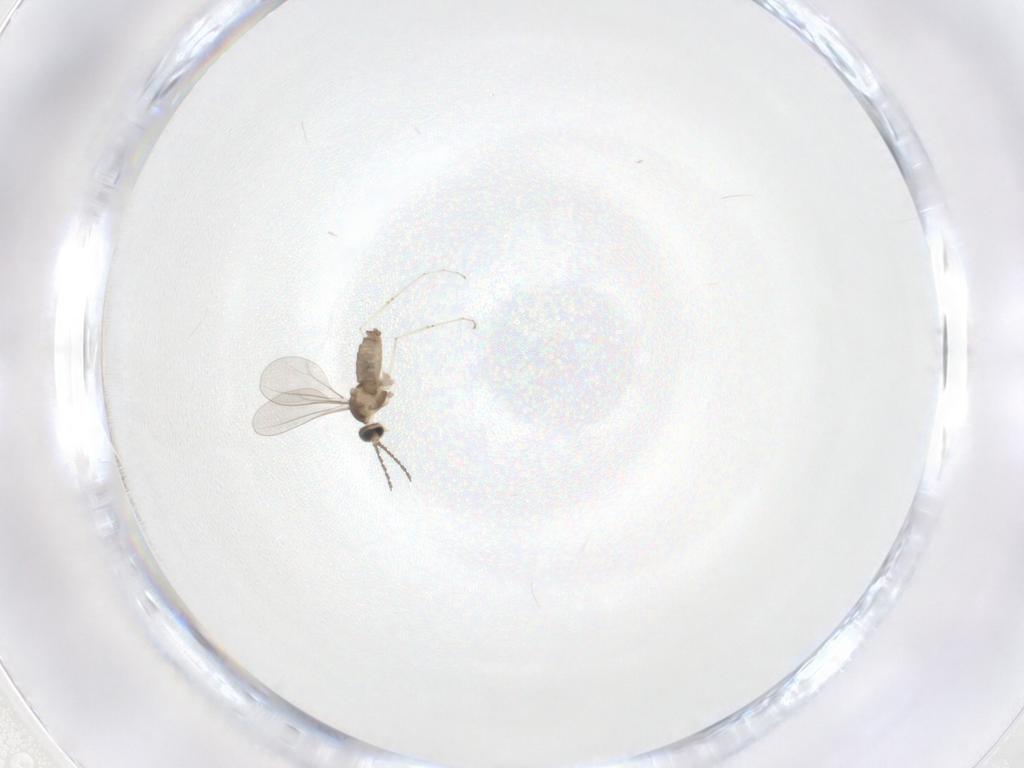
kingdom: Animalia
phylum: Arthropoda
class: Insecta
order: Diptera
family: Cecidomyiidae
